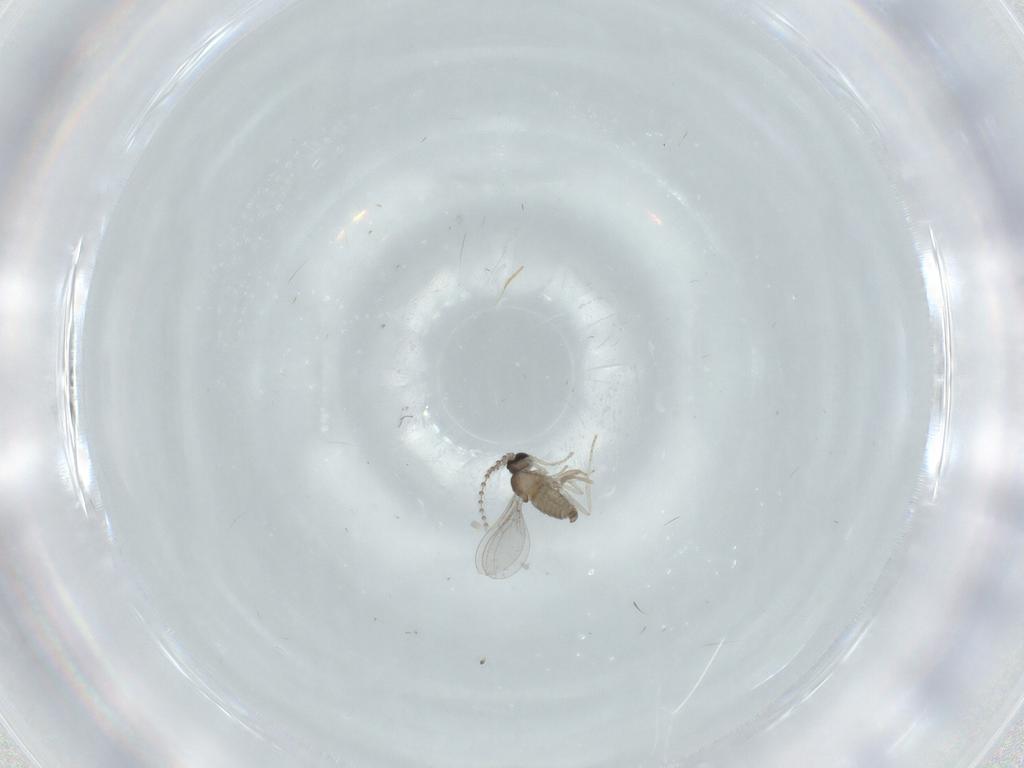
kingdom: Animalia
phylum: Arthropoda
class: Insecta
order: Diptera
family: Cecidomyiidae
